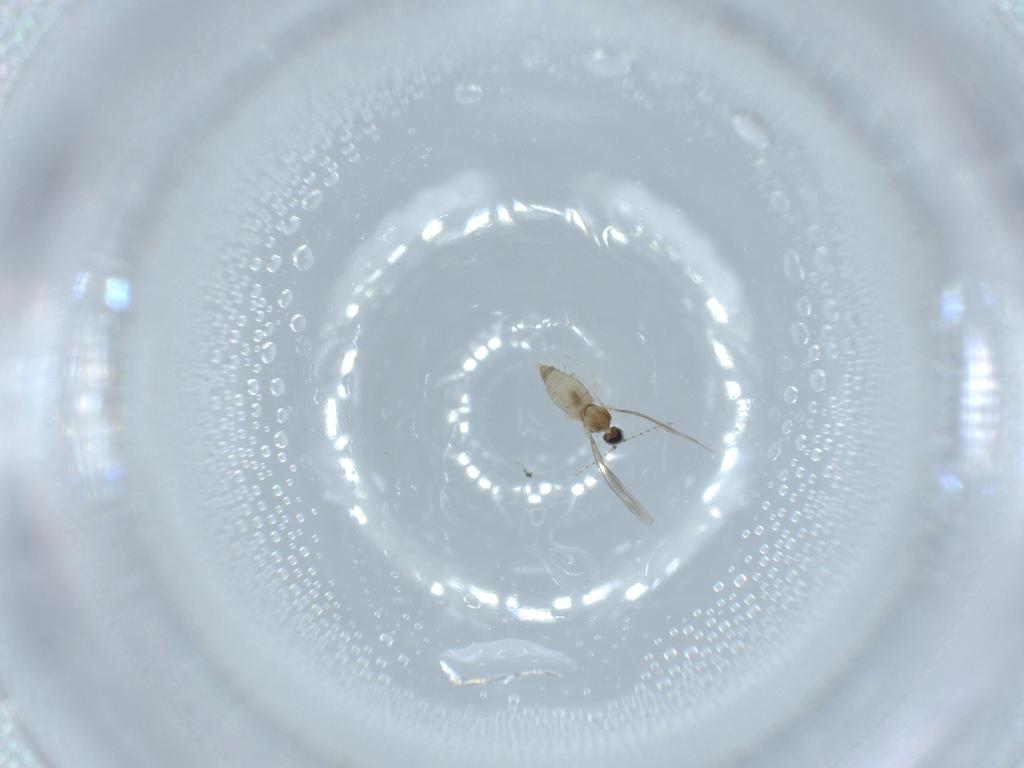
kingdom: Animalia
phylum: Arthropoda
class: Insecta
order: Diptera
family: Cecidomyiidae
